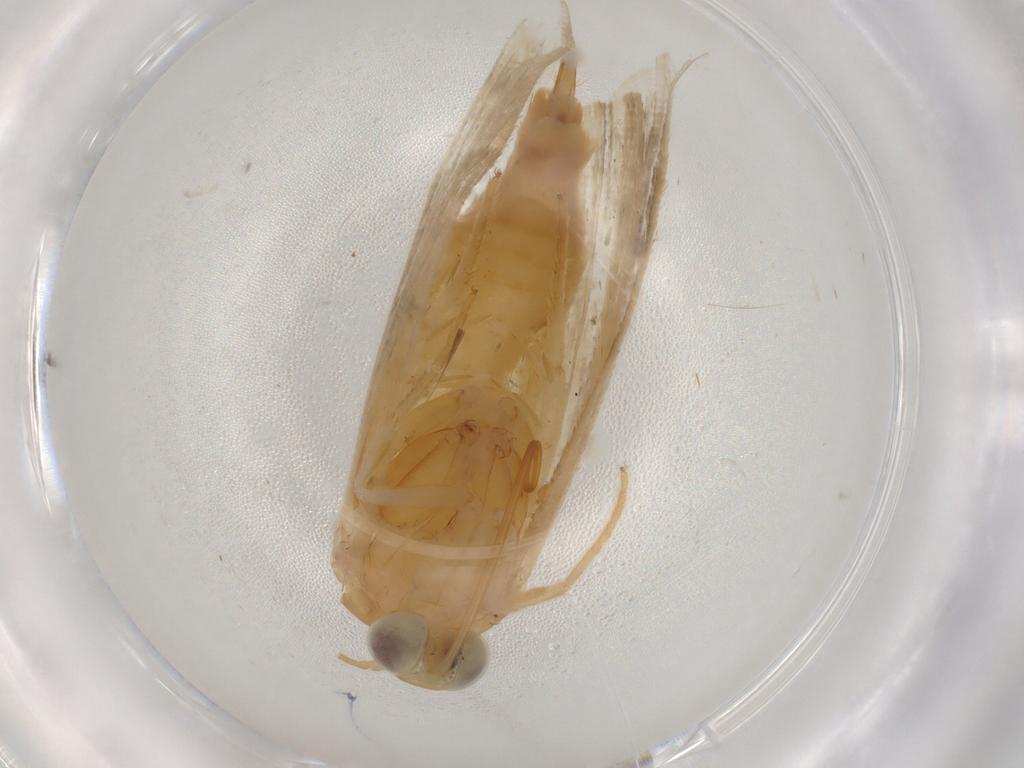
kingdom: Animalia
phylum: Arthropoda
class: Insecta
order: Lepidoptera
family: Noctuidae
